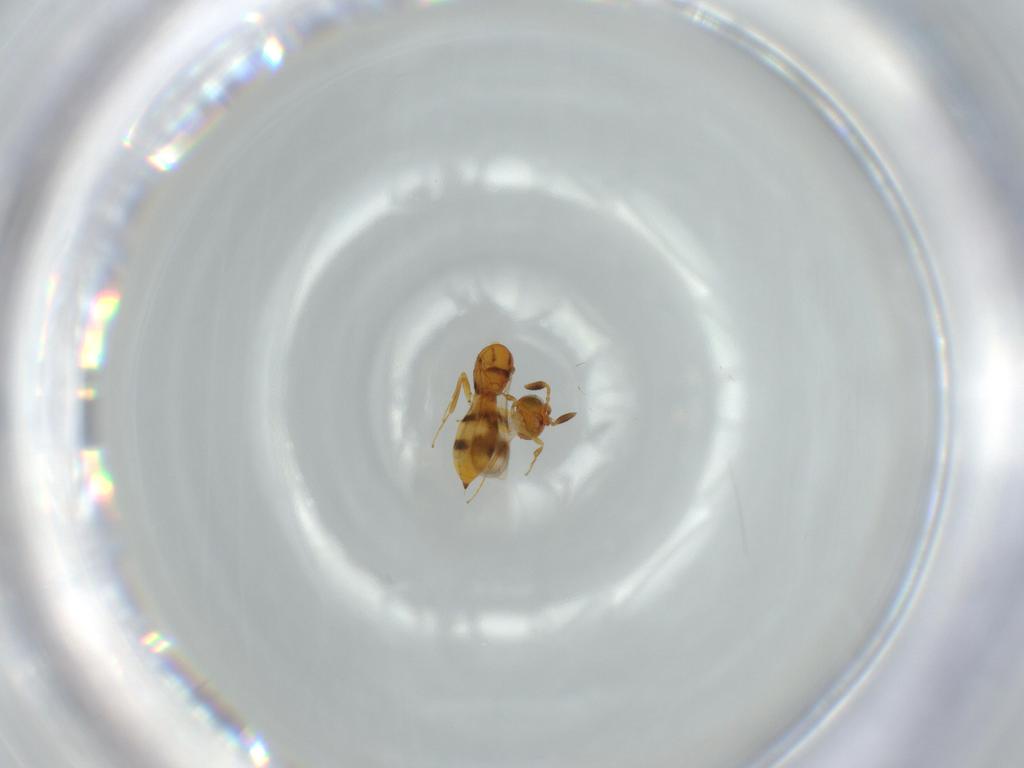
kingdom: Animalia
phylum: Arthropoda
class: Insecta
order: Hymenoptera
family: Scelionidae
